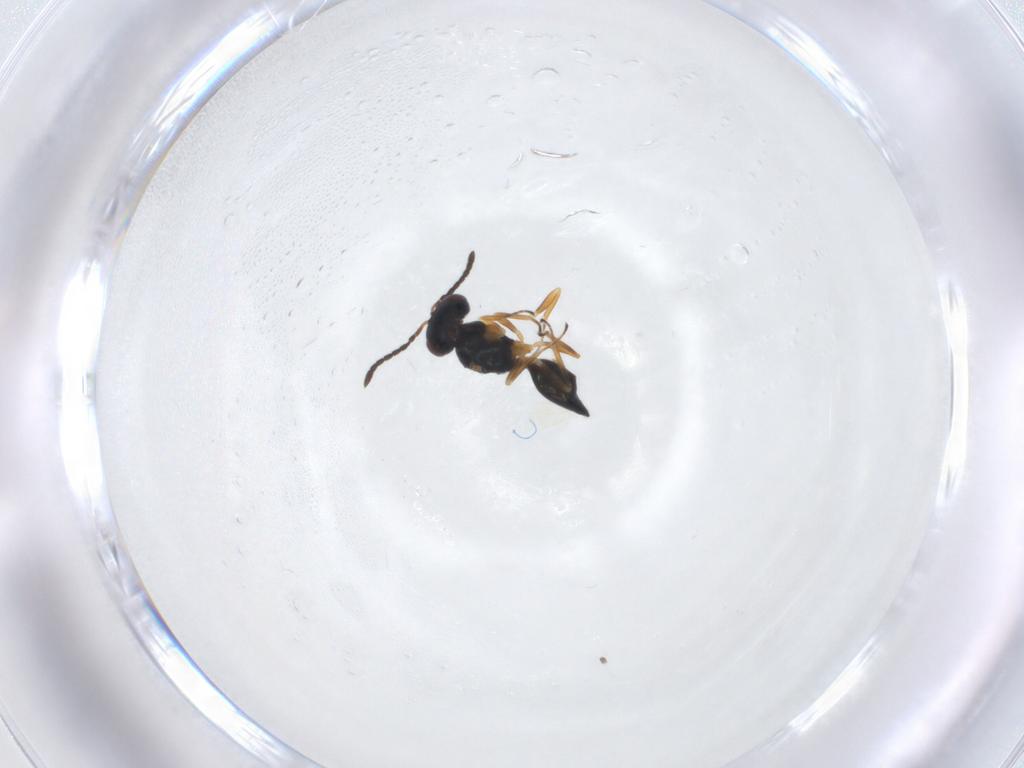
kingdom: Animalia
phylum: Arthropoda
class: Insecta
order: Hymenoptera
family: Pteromalidae
